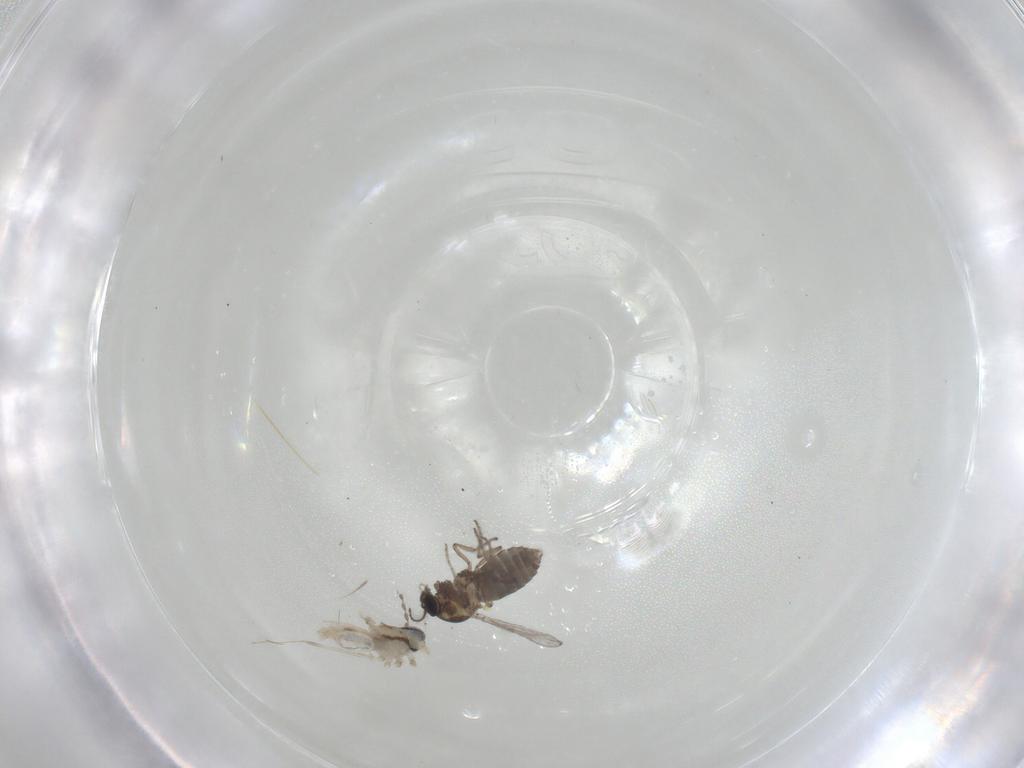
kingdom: Animalia
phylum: Arthropoda
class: Insecta
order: Diptera
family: Ceratopogonidae
